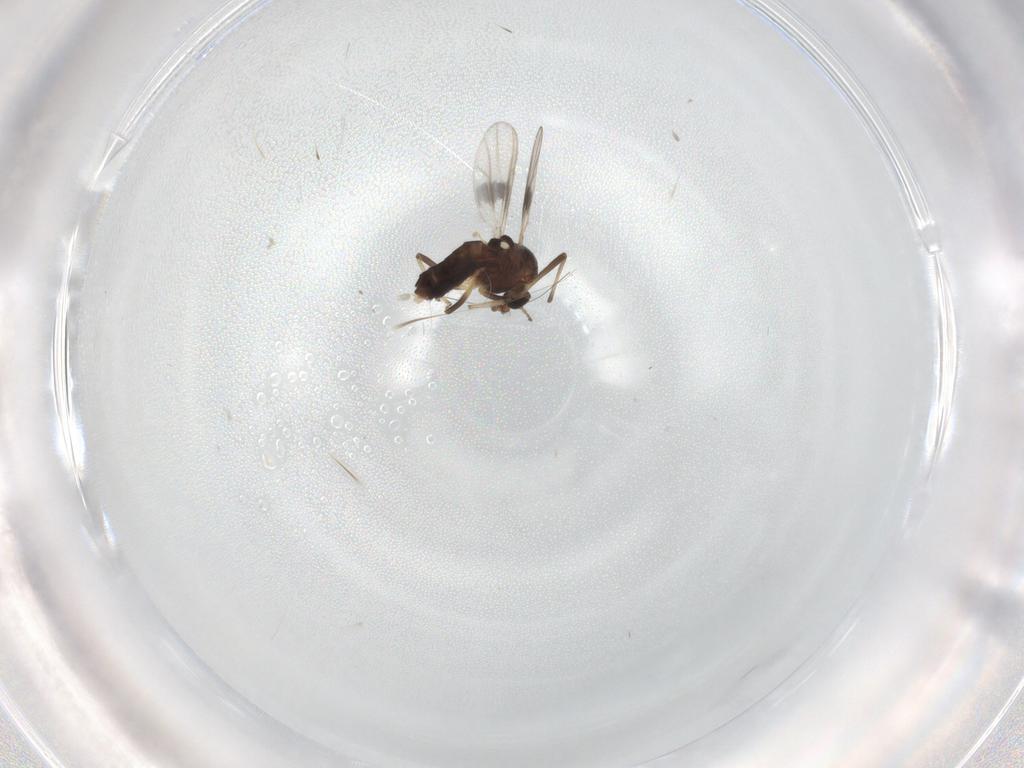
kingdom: Animalia
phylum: Arthropoda
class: Insecta
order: Diptera
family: Chironomidae
